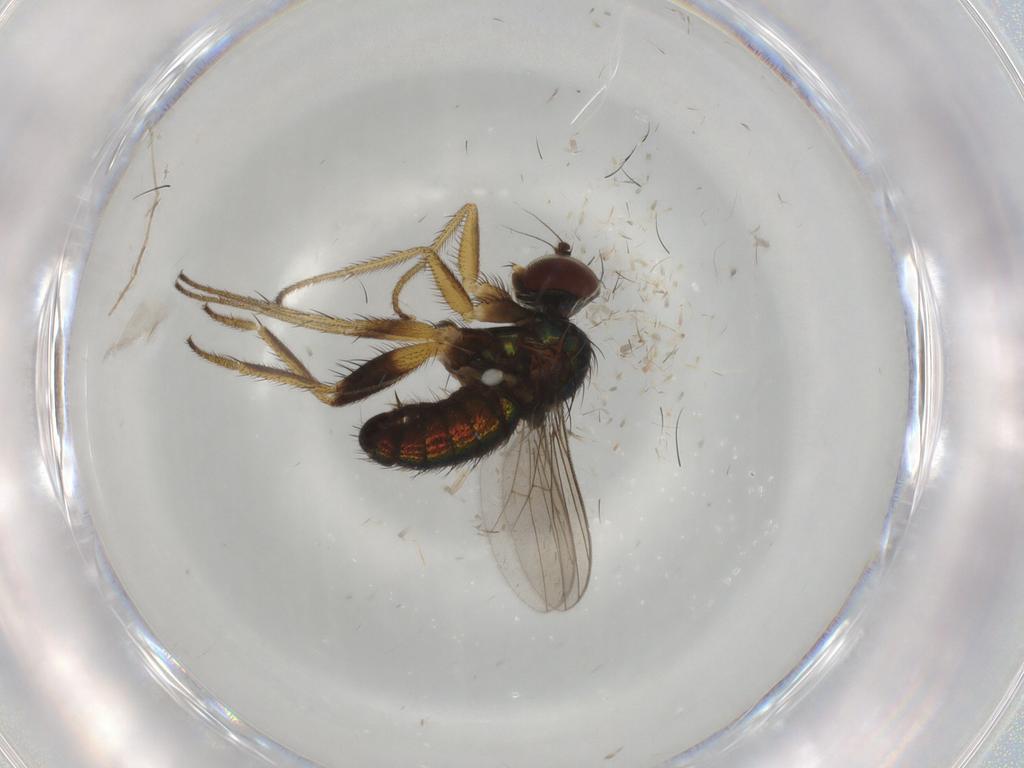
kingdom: Animalia
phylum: Arthropoda
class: Insecta
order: Diptera
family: Dolichopodidae
